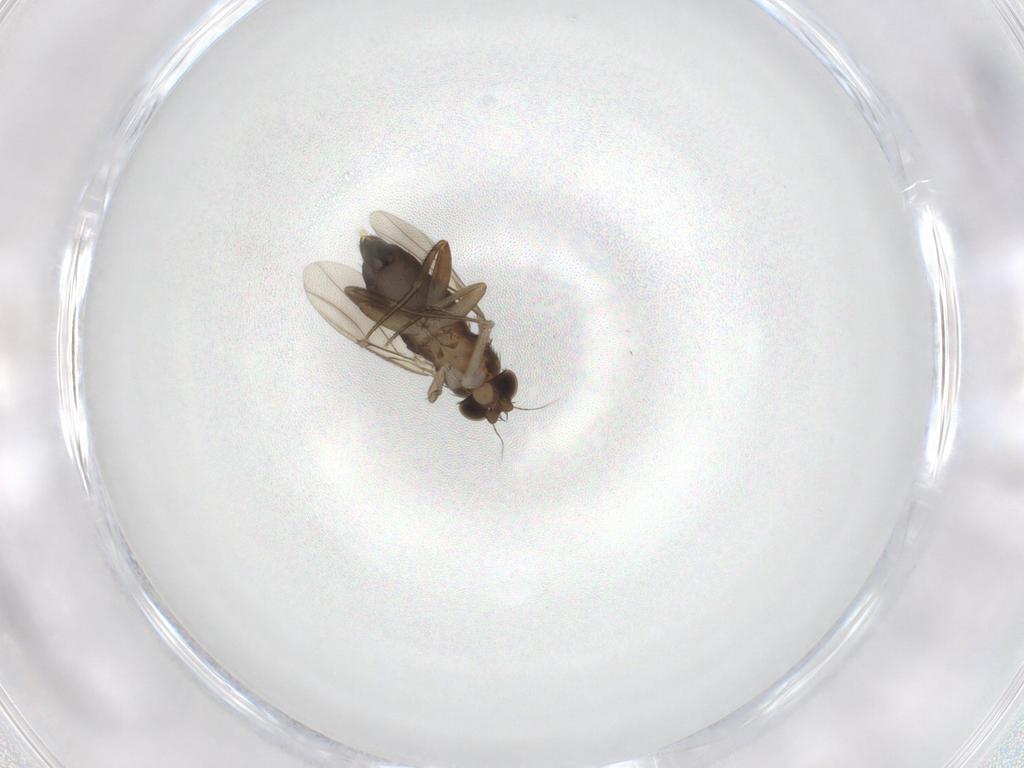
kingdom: Animalia
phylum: Arthropoda
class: Insecta
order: Diptera
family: Phoridae
